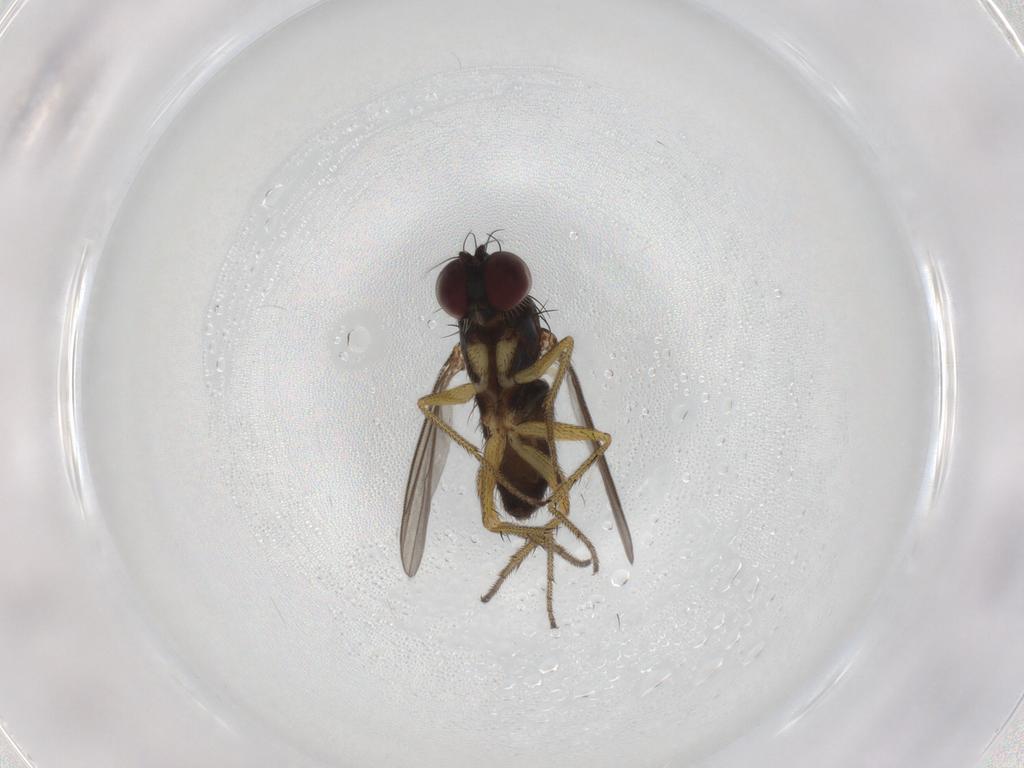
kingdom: Animalia
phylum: Arthropoda
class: Insecta
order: Diptera
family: Dolichopodidae
